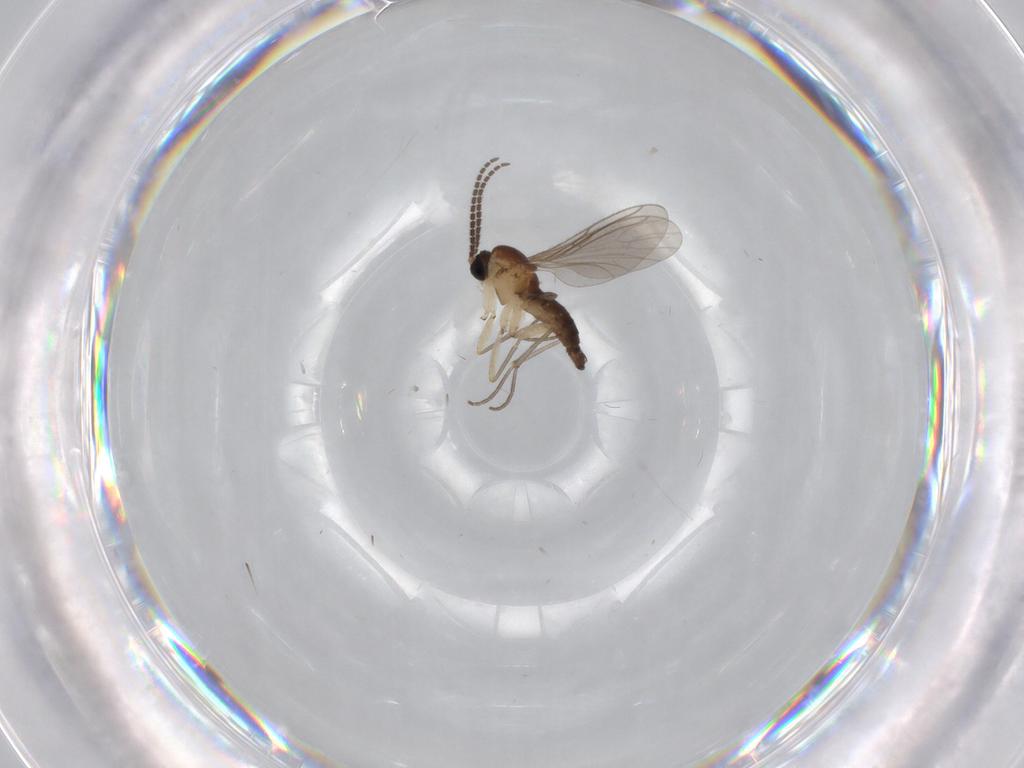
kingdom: Animalia
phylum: Arthropoda
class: Insecta
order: Diptera
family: Sciaridae
